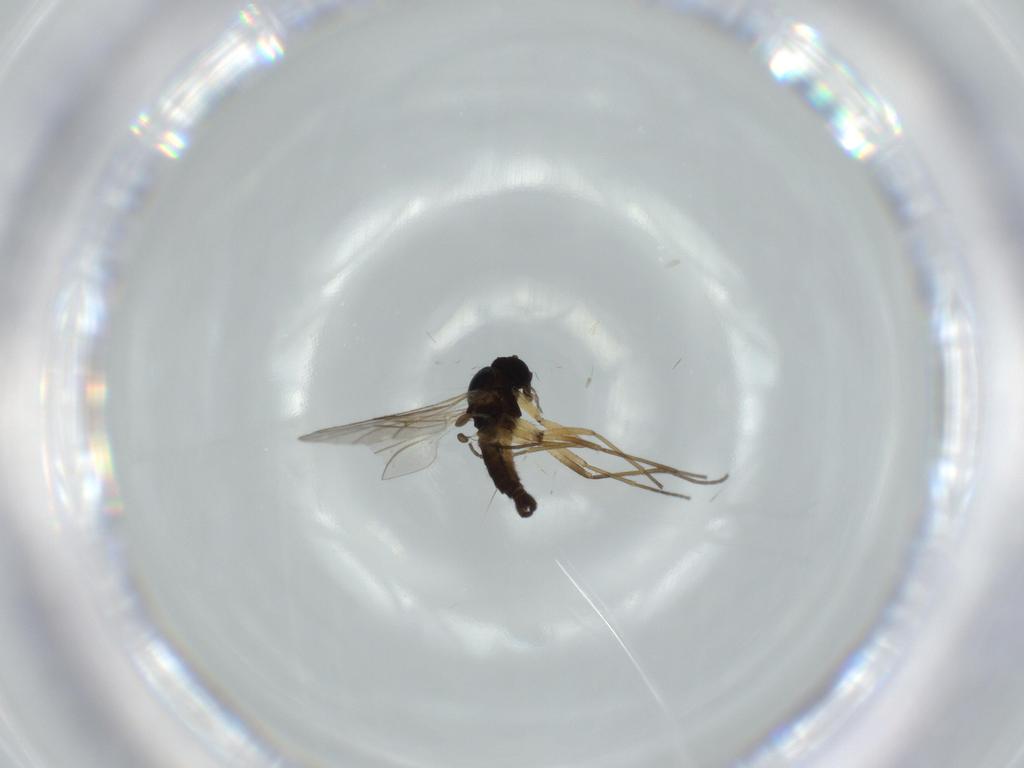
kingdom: Animalia
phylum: Arthropoda
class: Insecta
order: Diptera
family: Sciaridae
